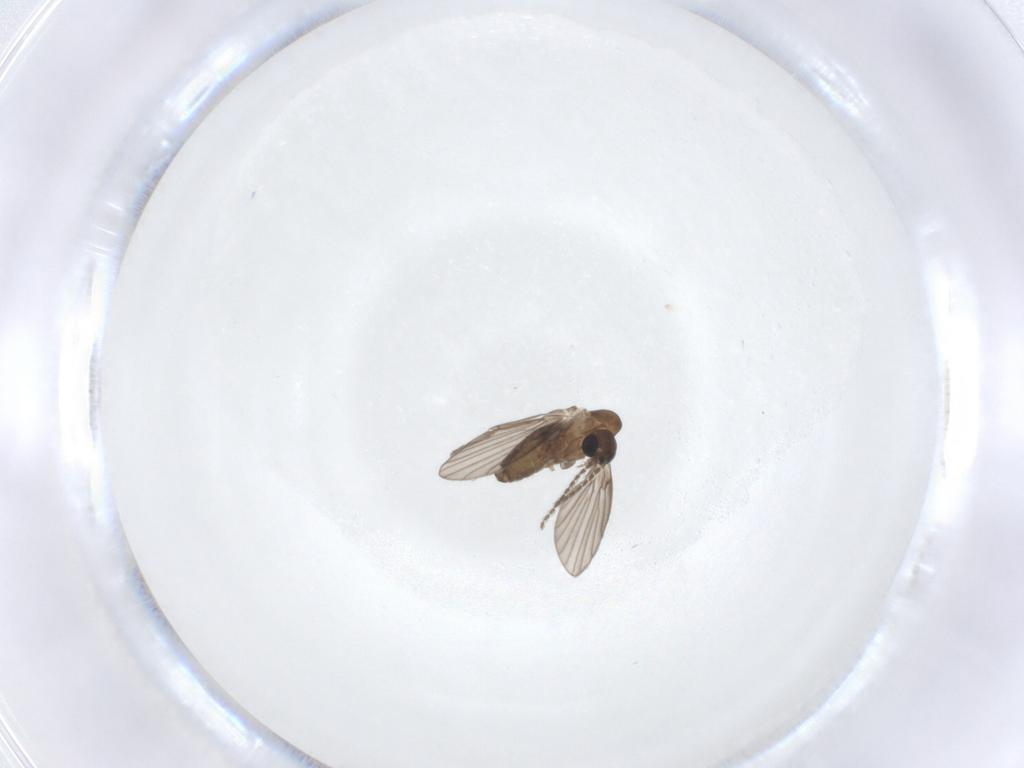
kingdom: Animalia
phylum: Arthropoda
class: Insecta
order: Diptera
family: Psychodidae
